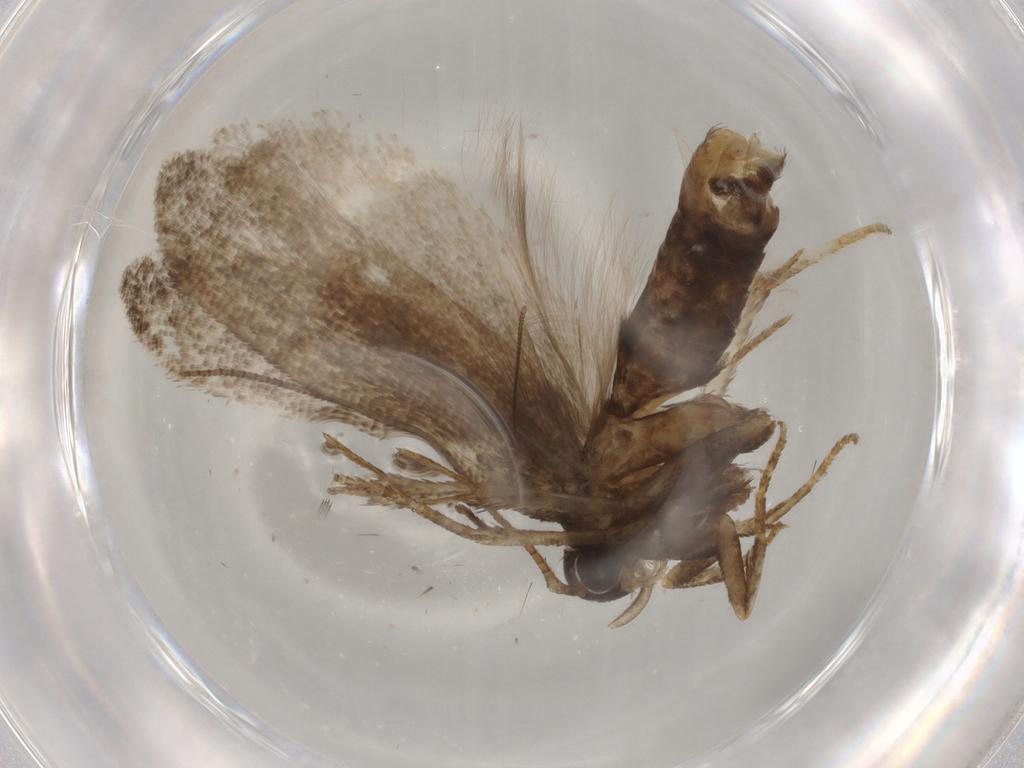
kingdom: Animalia
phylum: Arthropoda
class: Insecta
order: Lepidoptera
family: Gelechiidae
